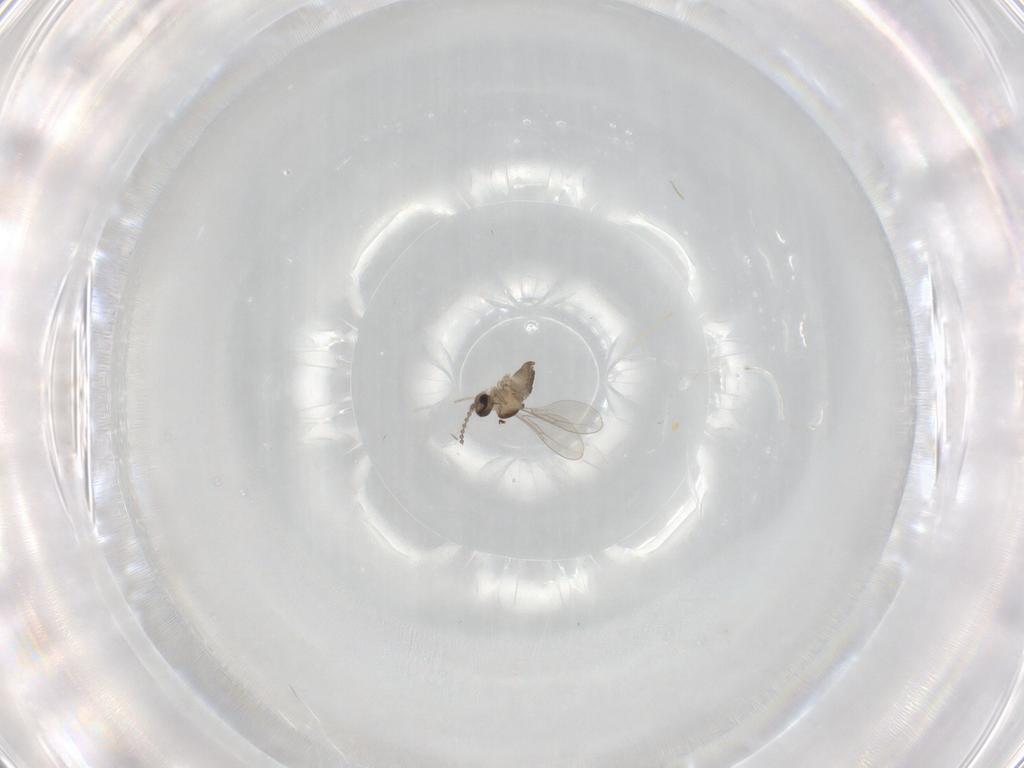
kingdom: Animalia
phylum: Arthropoda
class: Insecta
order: Diptera
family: Cecidomyiidae
